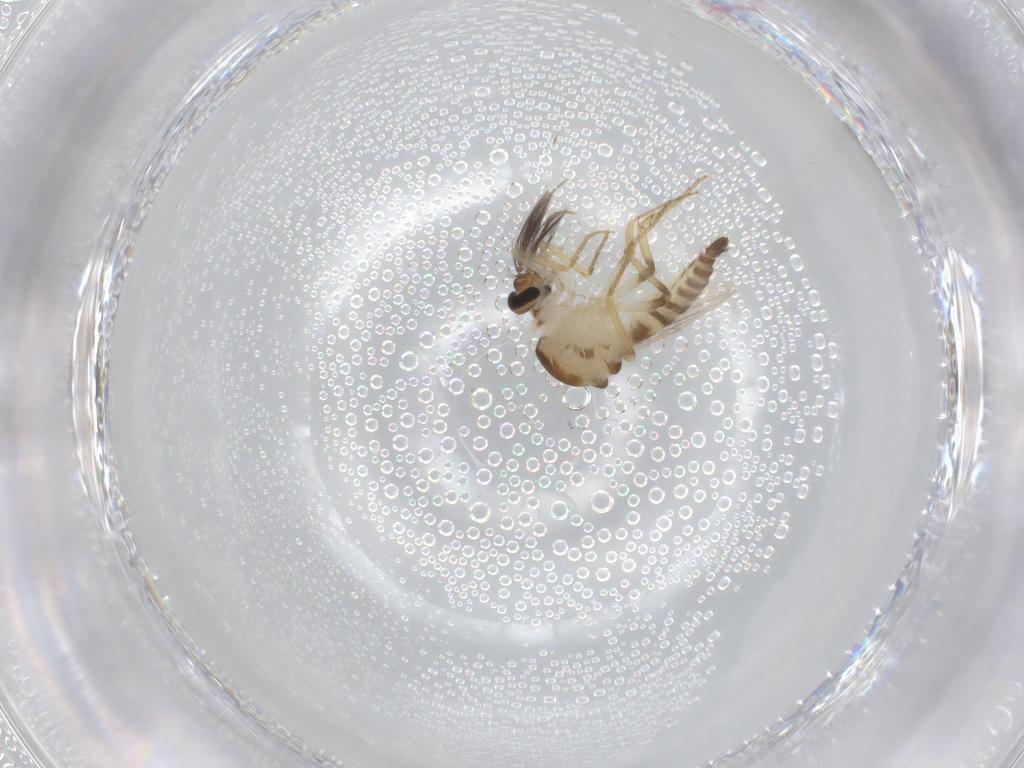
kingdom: Animalia
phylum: Arthropoda
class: Insecta
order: Diptera
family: Ceratopogonidae
